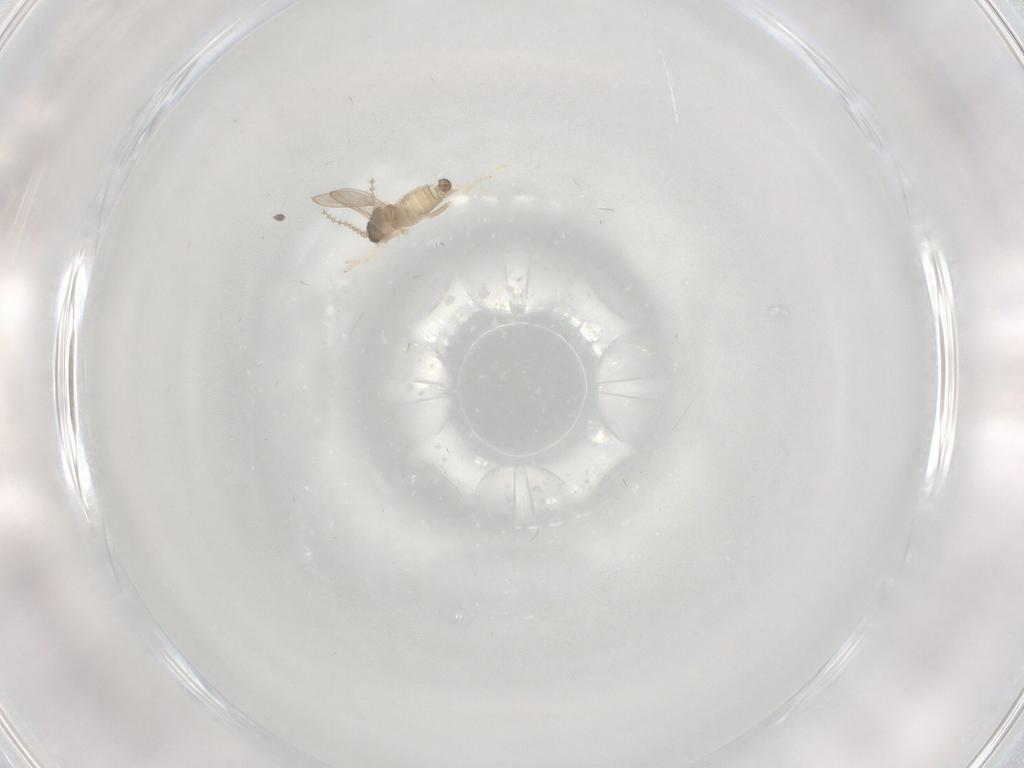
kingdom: Animalia
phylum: Arthropoda
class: Insecta
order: Diptera
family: Cecidomyiidae
